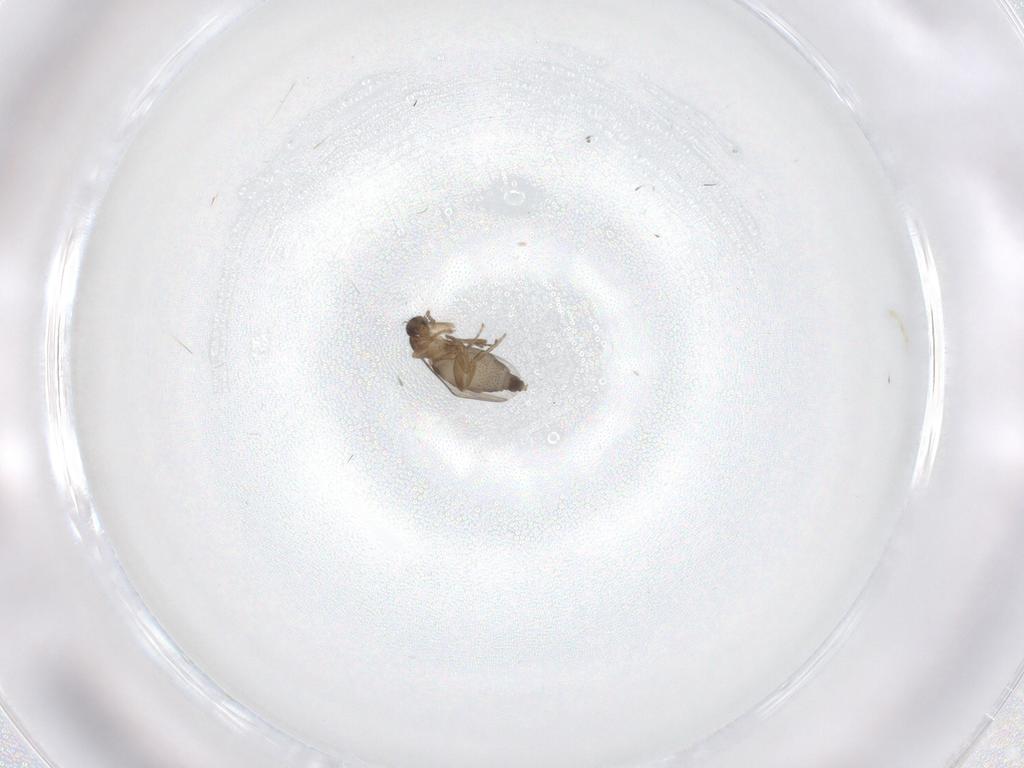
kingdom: Animalia
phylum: Arthropoda
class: Insecta
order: Diptera
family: Phoridae
